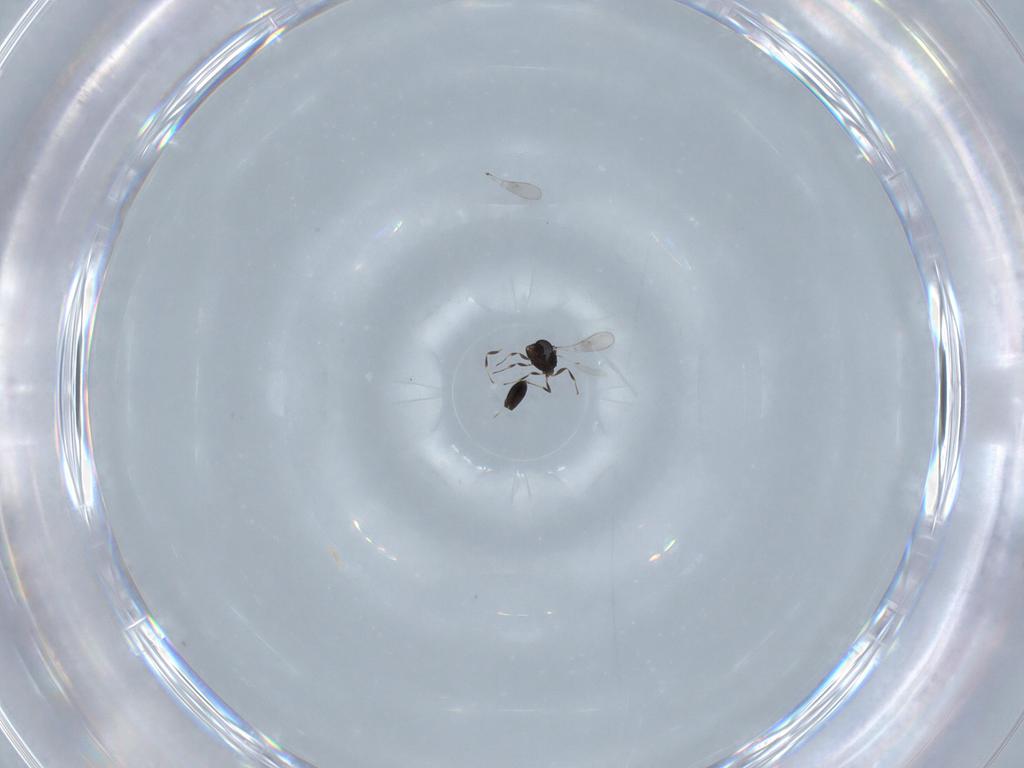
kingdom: Animalia
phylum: Arthropoda
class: Insecta
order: Hymenoptera
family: Scelionidae
